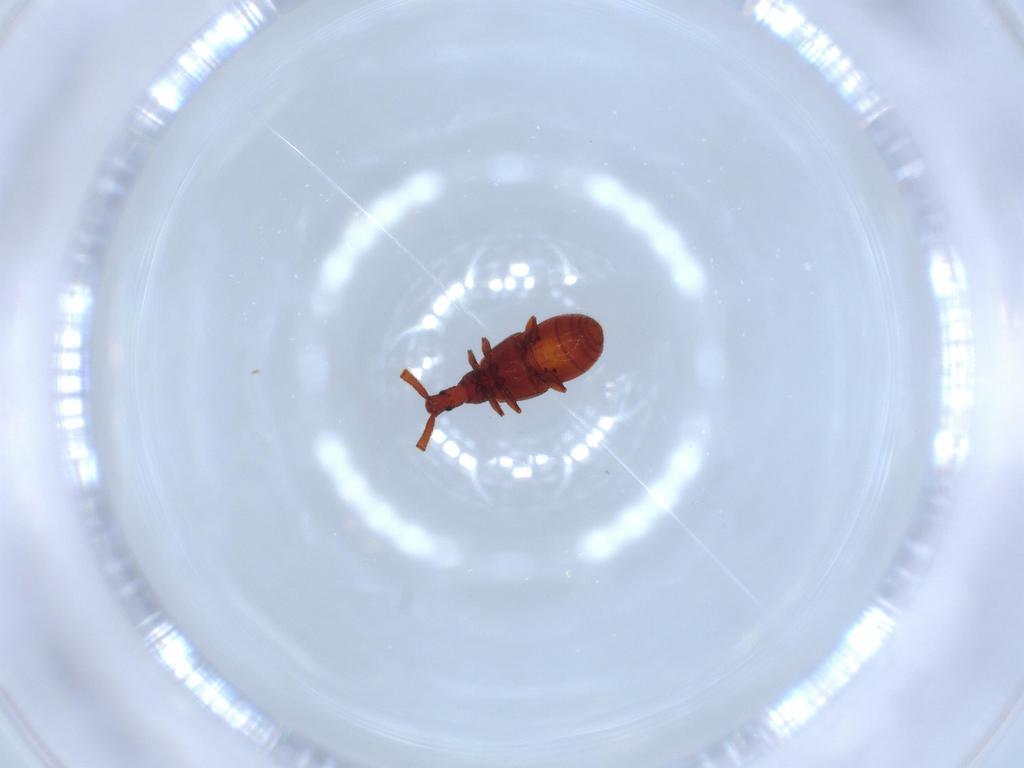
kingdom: Animalia
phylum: Arthropoda
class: Insecta
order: Coleoptera
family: Staphylinidae
